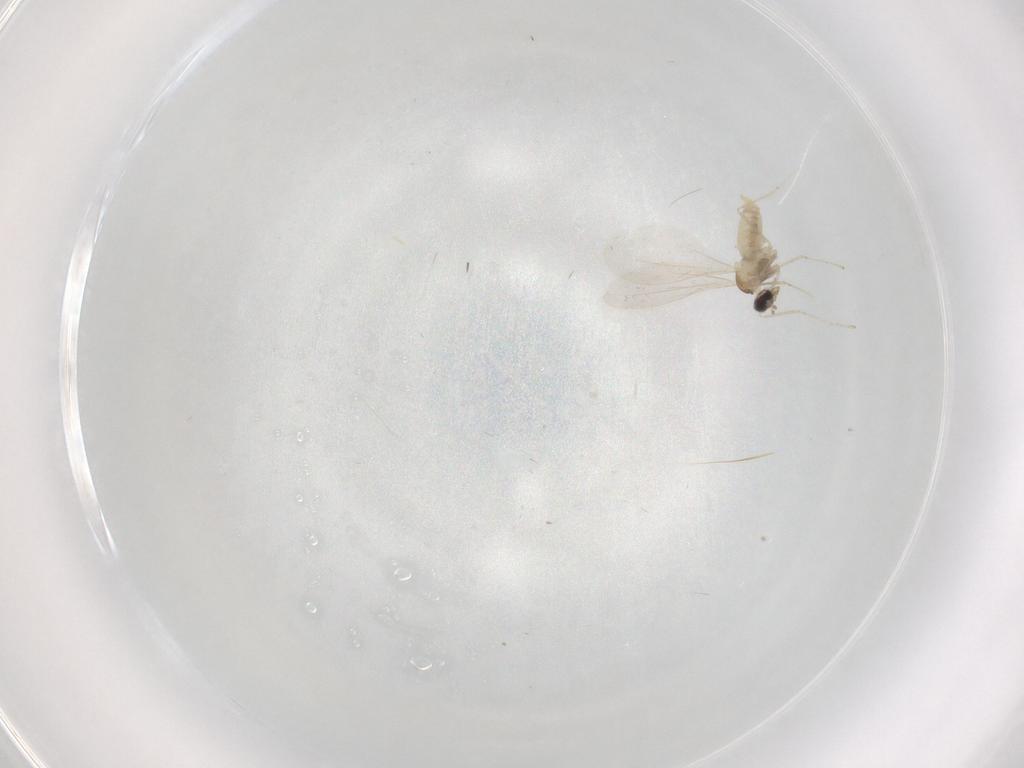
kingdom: Animalia
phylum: Arthropoda
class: Insecta
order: Diptera
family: Cecidomyiidae
